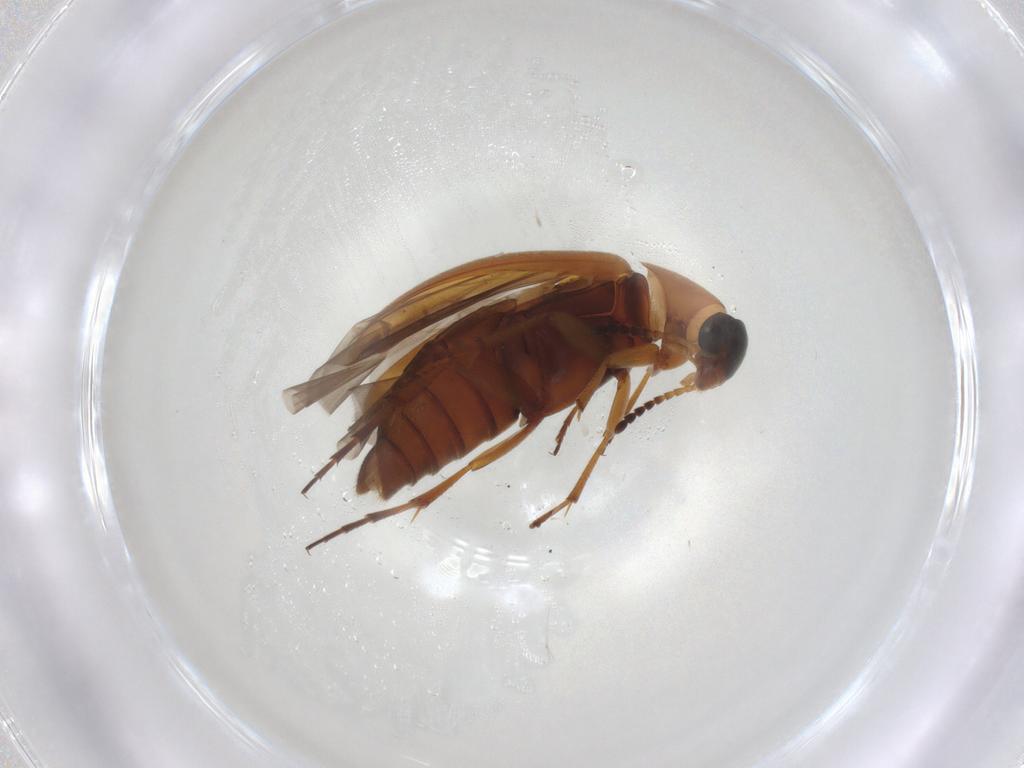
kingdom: Animalia
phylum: Arthropoda
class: Insecta
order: Coleoptera
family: Scraptiidae
